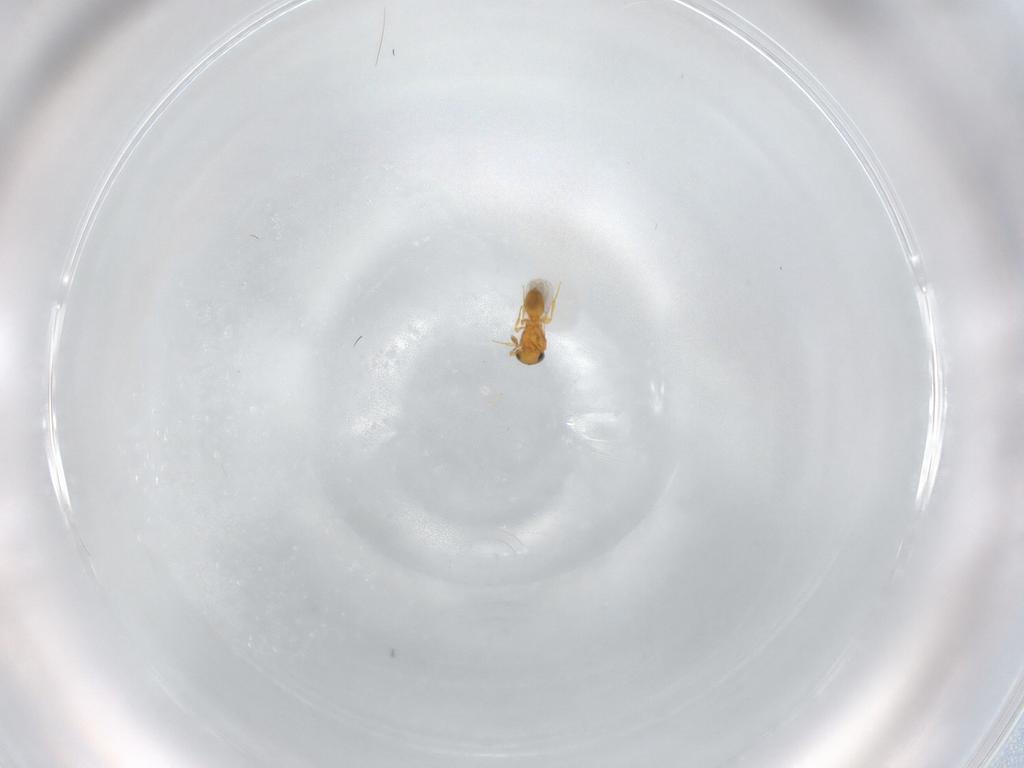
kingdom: Animalia
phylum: Arthropoda
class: Insecta
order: Hymenoptera
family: Platygastridae
